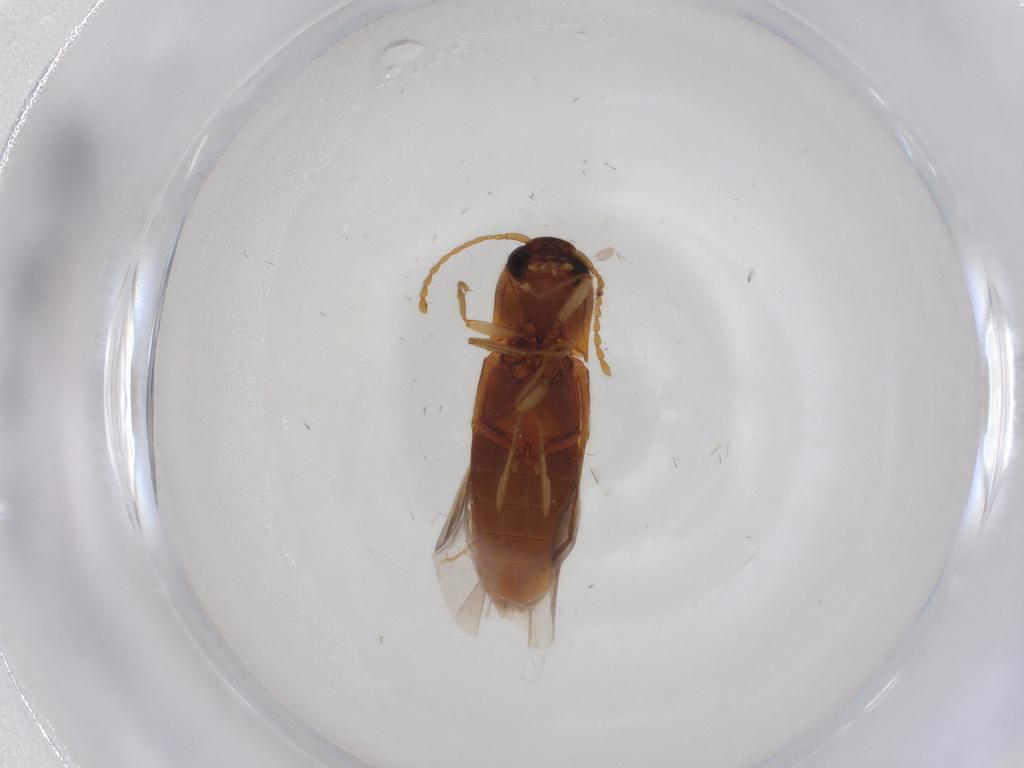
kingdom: Animalia
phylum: Arthropoda
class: Insecta
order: Coleoptera
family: Elateridae
